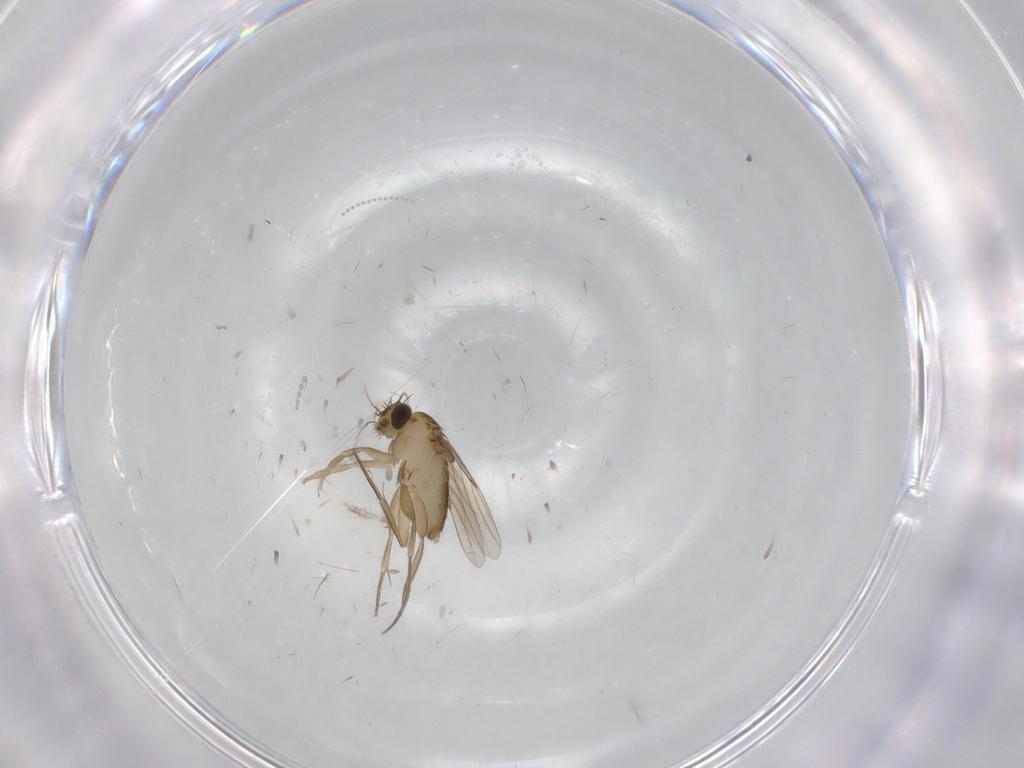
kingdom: Animalia
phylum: Arthropoda
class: Insecta
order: Diptera
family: Phoridae
